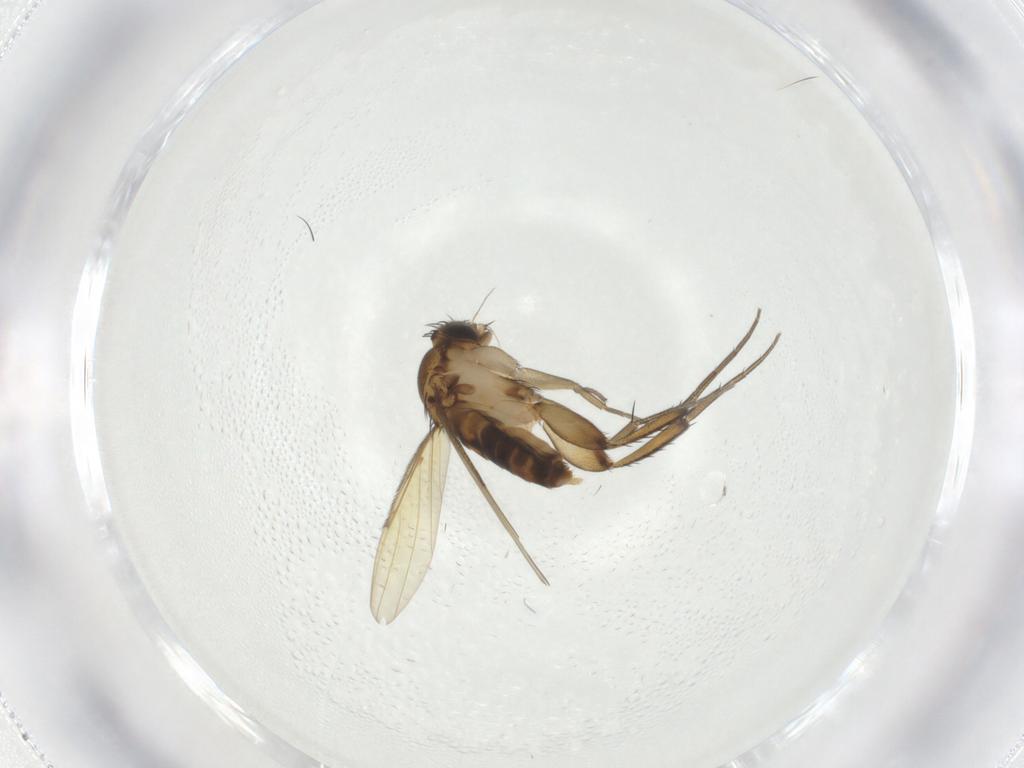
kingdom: Animalia
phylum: Arthropoda
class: Insecta
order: Diptera
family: Phoridae
